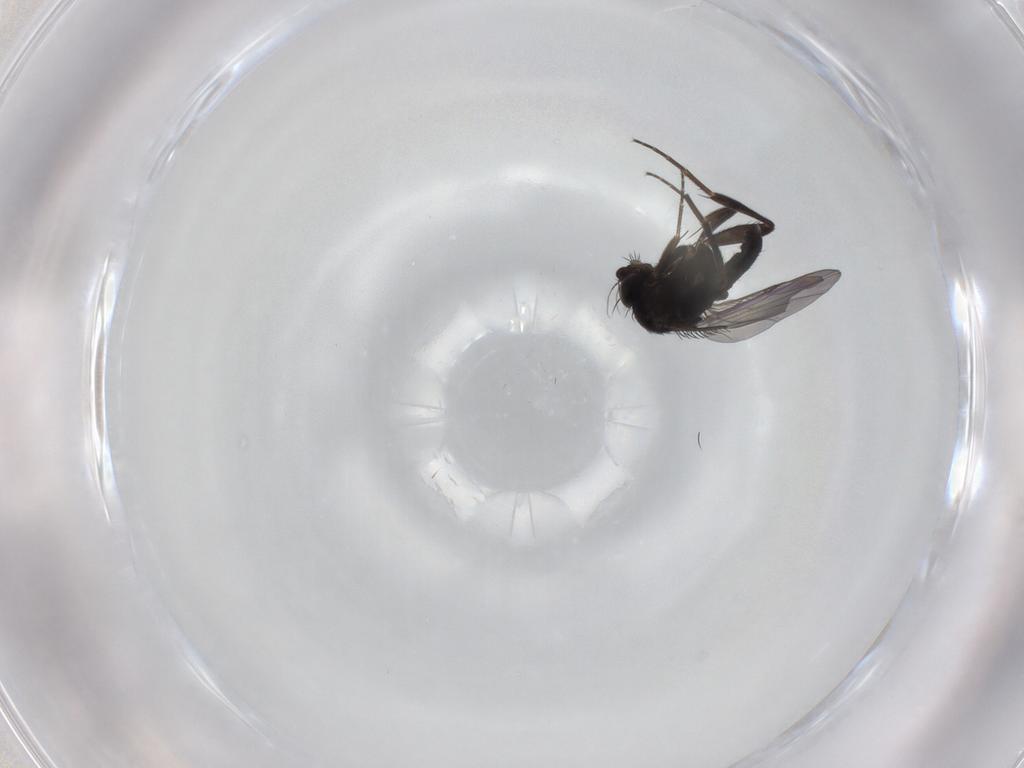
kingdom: Animalia
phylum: Arthropoda
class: Insecta
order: Diptera
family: Phoridae
